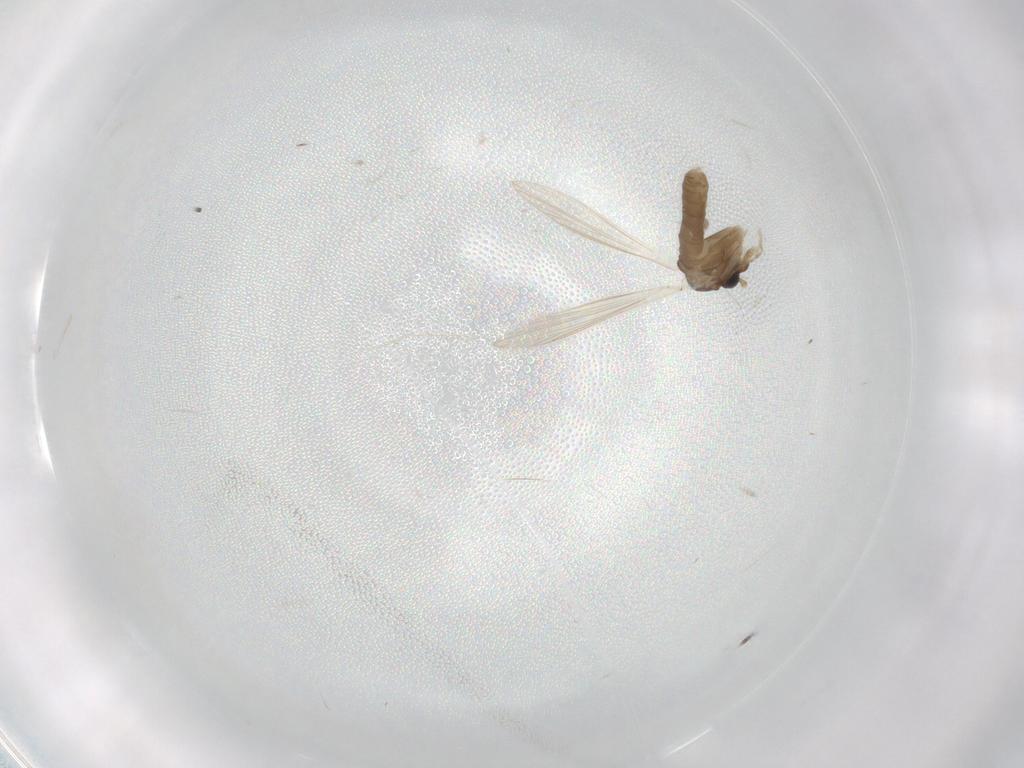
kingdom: Animalia
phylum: Arthropoda
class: Insecta
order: Diptera
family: Psychodidae
